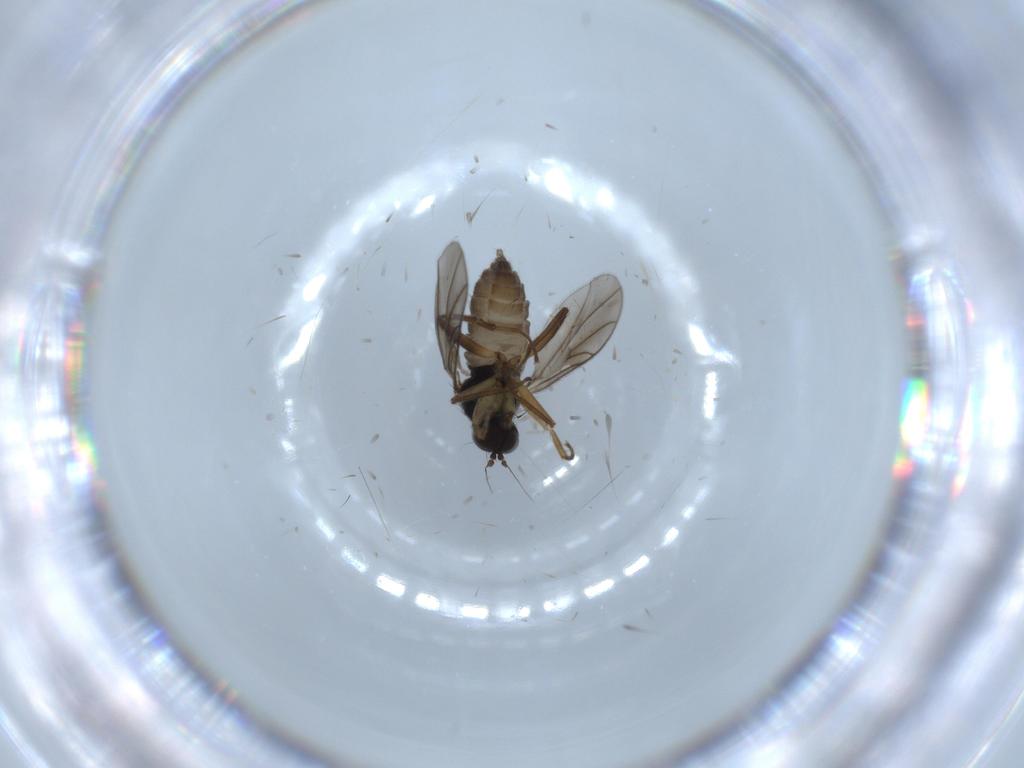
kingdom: Animalia
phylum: Arthropoda
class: Insecta
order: Diptera
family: Hybotidae
